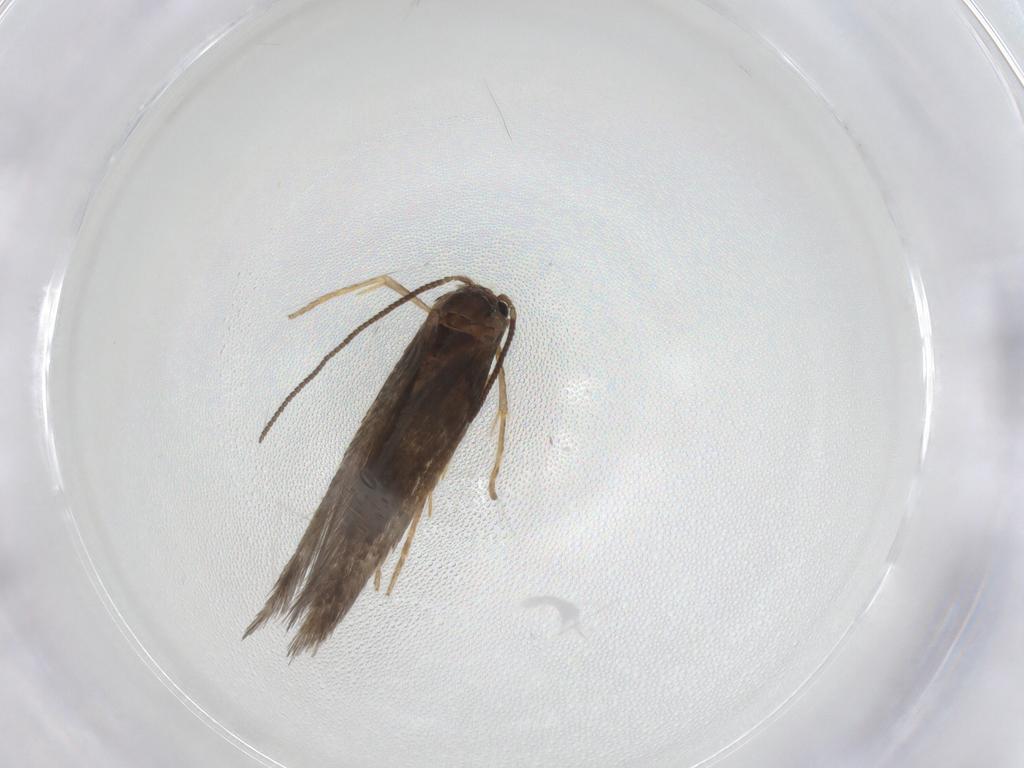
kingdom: Animalia
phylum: Arthropoda
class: Insecta
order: Lepidoptera
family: Nepticulidae
